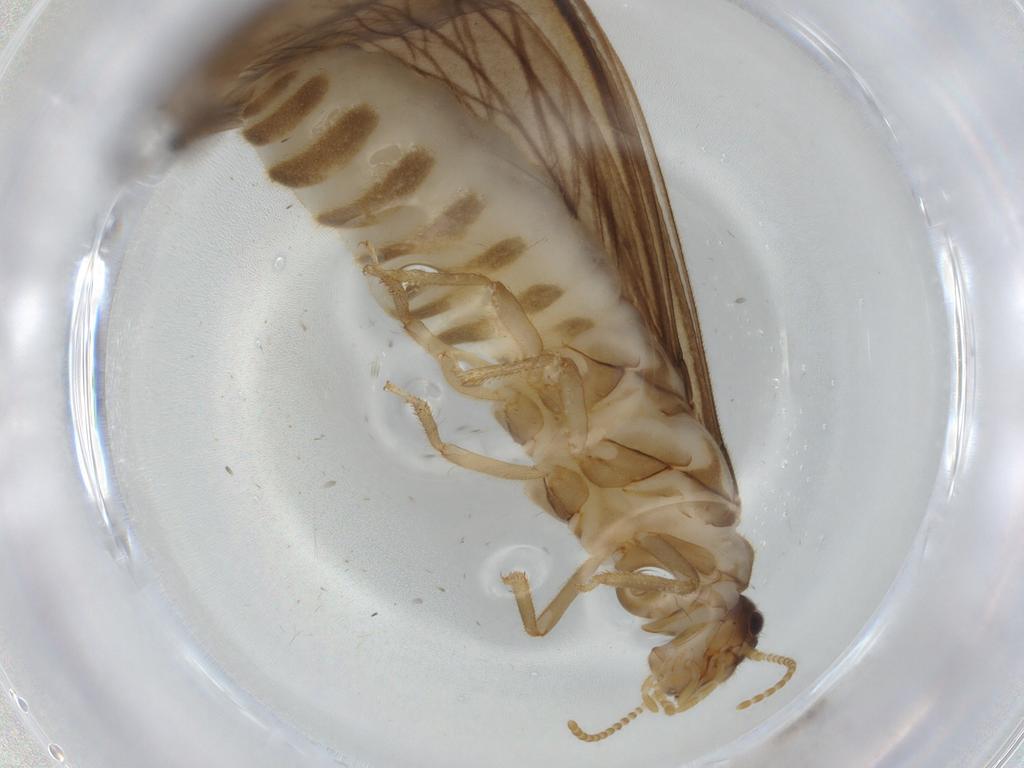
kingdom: Animalia
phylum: Arthropoda
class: Insecta
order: Blattodea
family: Termitidae
